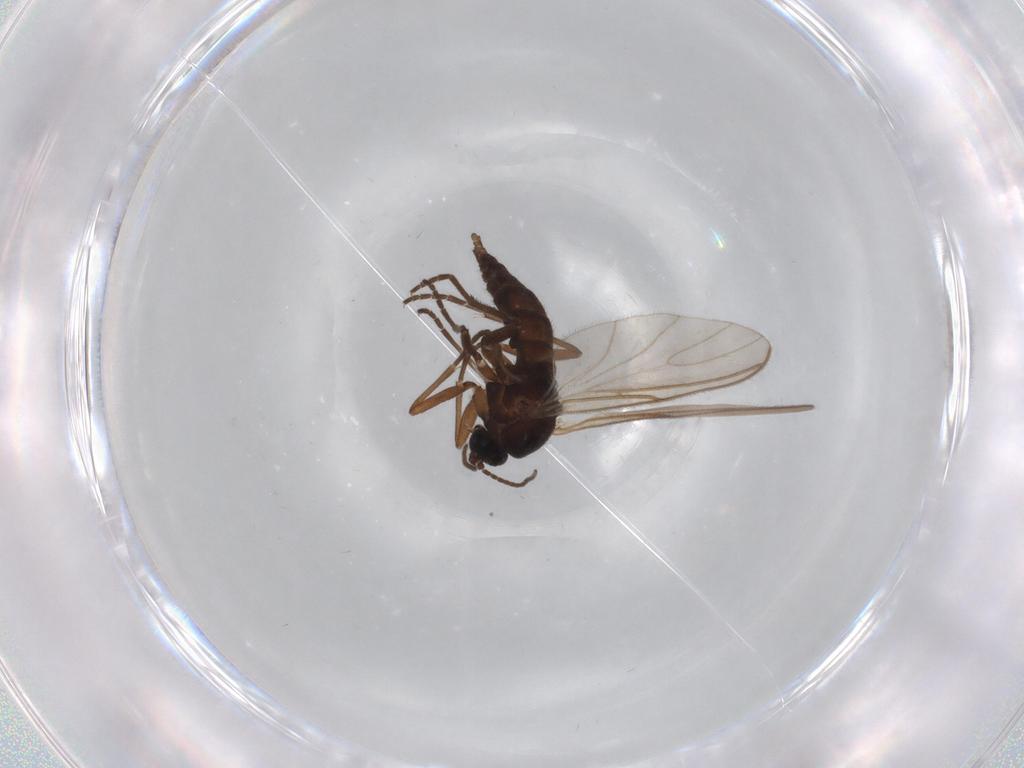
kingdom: Animalia
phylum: Arthropoda
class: Insecta
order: Diptera
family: Sciaridae
